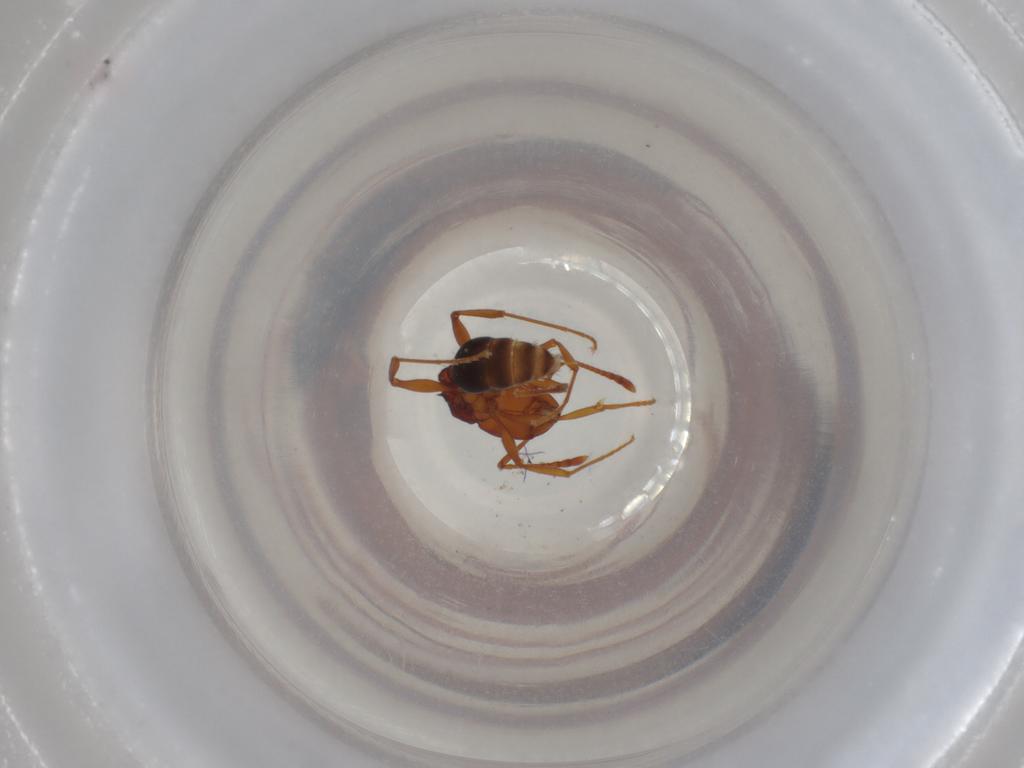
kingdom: Animalia
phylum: Arthropoda
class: Insecta
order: Hymenoptera
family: Formicidae
